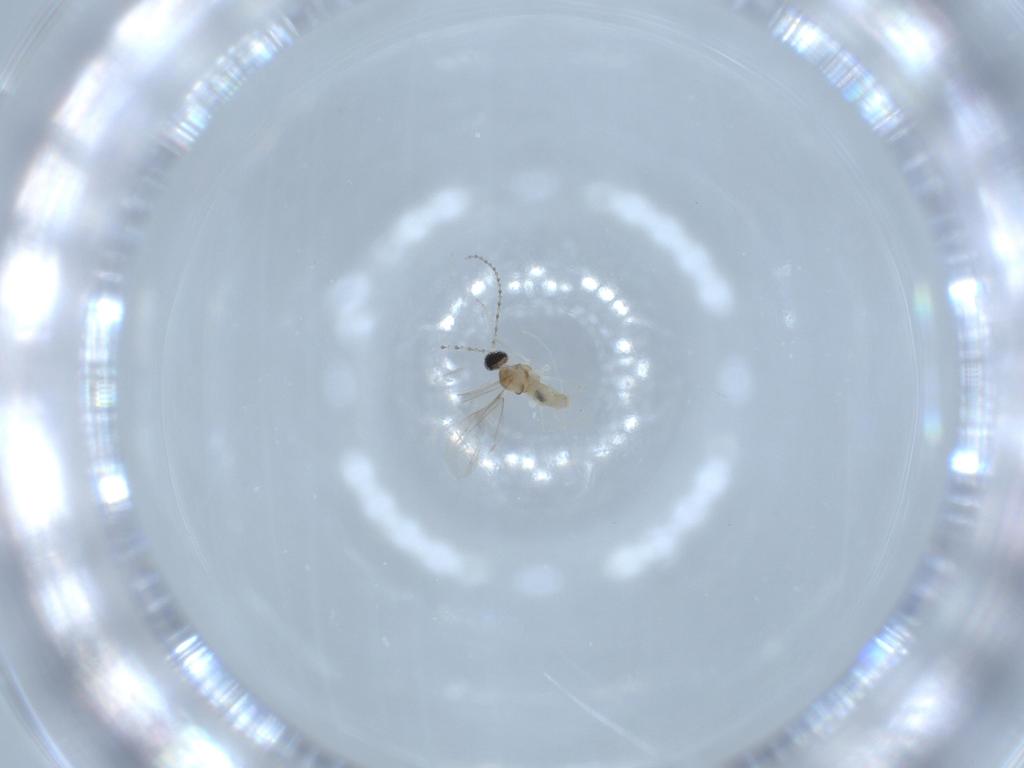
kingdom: Animalia
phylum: Arthropoda
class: Insecta
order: Diptera
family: Cecidomyiidae
